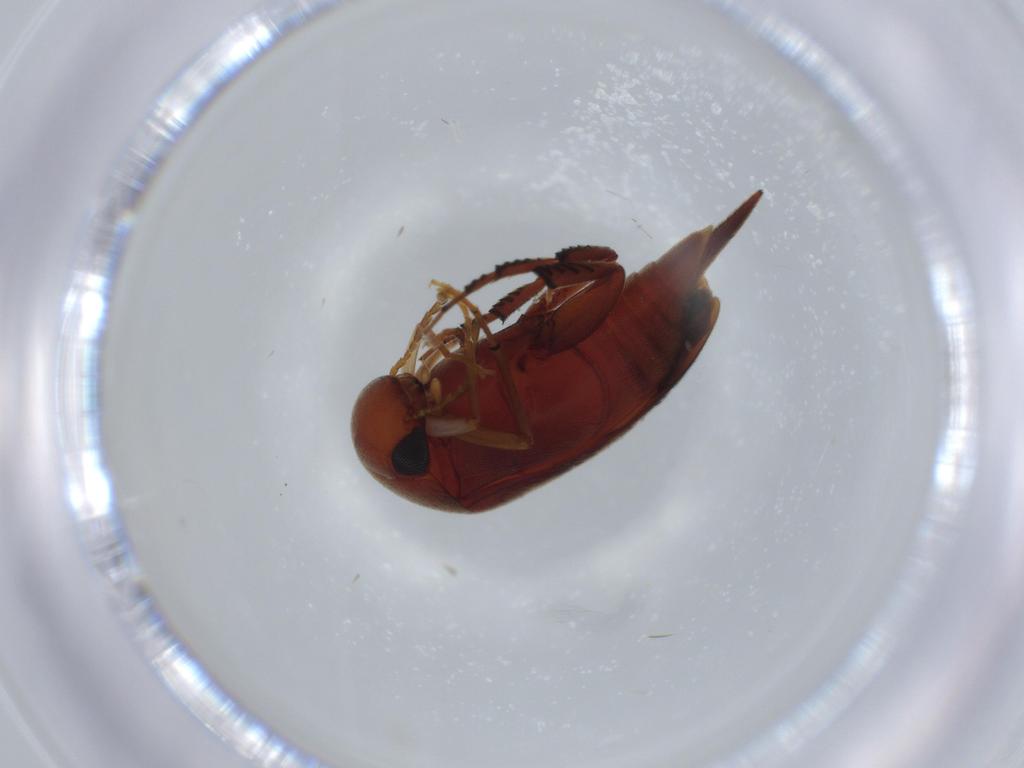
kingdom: Animalia
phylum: Arthropoda
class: Insecta
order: Coleoptera
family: Mordellidae
